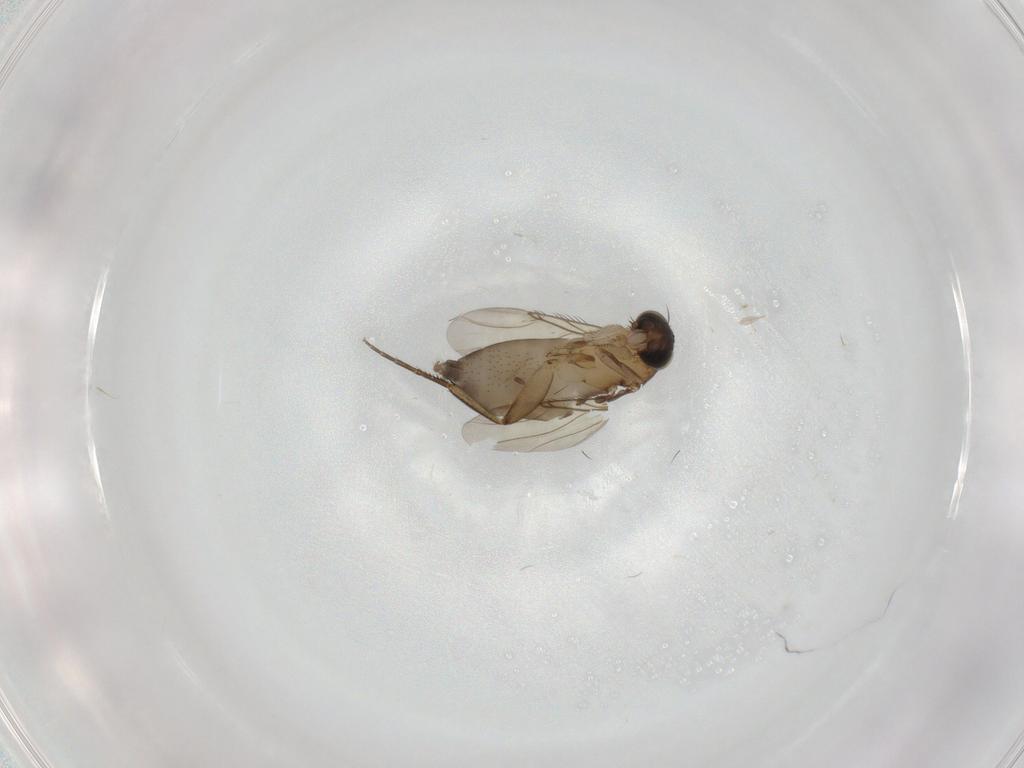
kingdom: Animalia
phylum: Arthropoda
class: Insecta
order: Diptera
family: Phoridae
